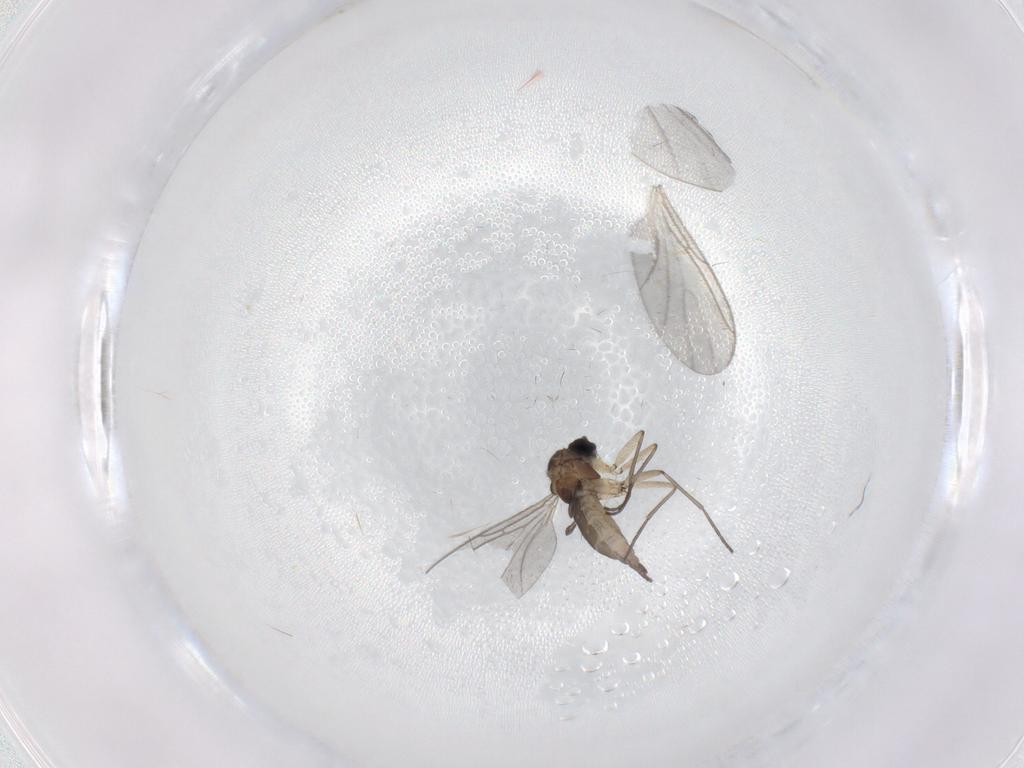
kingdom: Animalia
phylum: Arthropoda
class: Insecta
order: Diptera
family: Sciaridae
